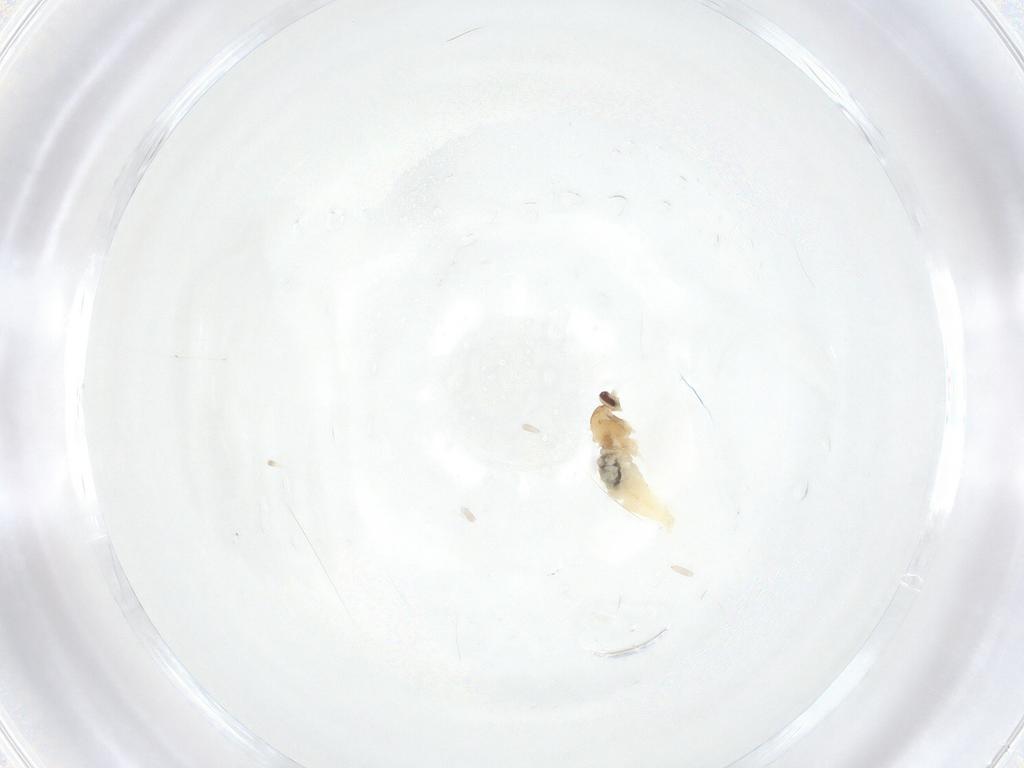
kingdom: Animalia
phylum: Arthropoda
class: Insecta
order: Diptera
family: Cecidomyiidae
